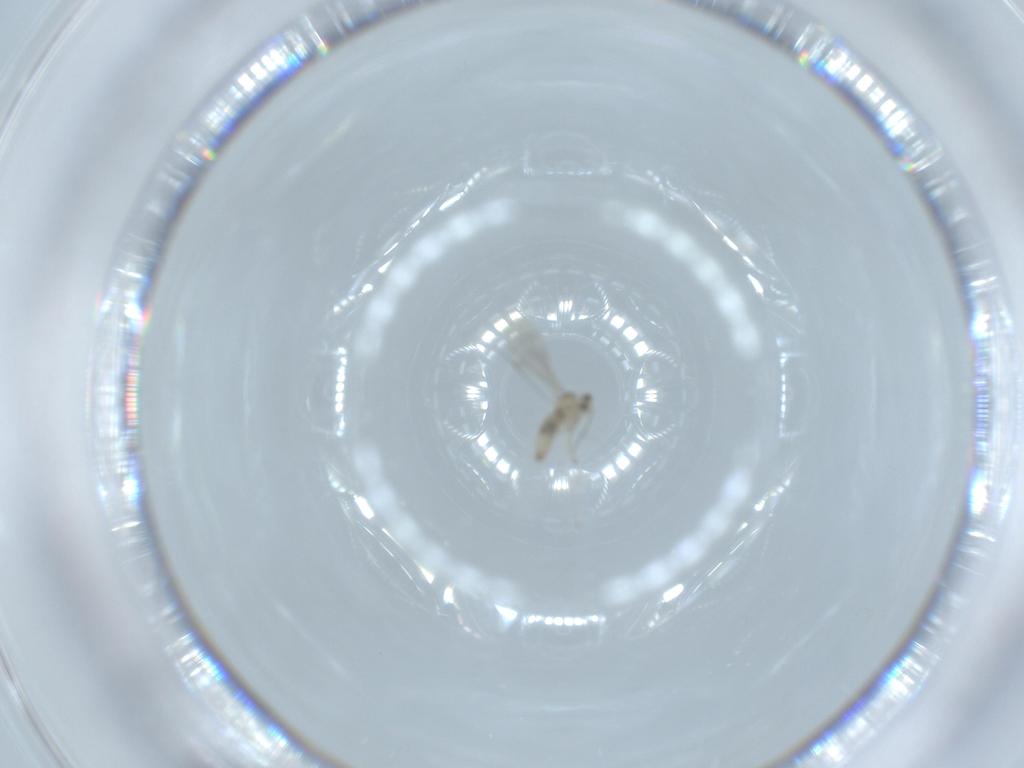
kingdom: Animalia
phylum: Arthropoda
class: Insecta
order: Diptera
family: Cecidomyiidae
